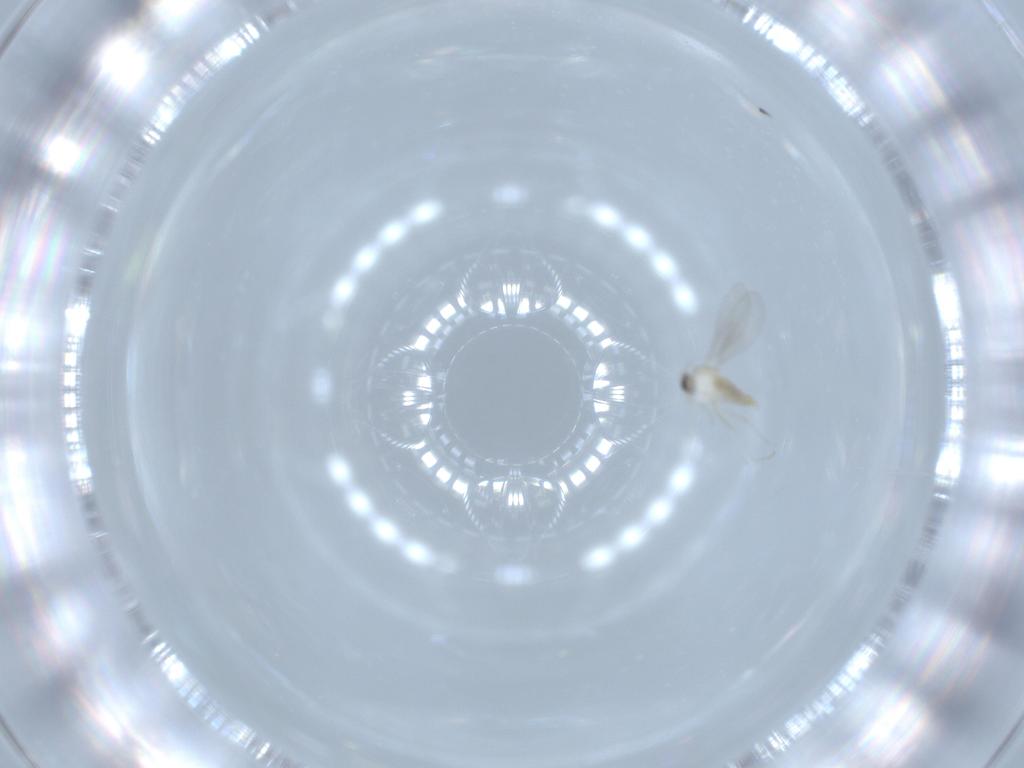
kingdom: Animalia
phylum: Arthropoda
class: Insecta
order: Diptera
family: Cecidomyiidae
